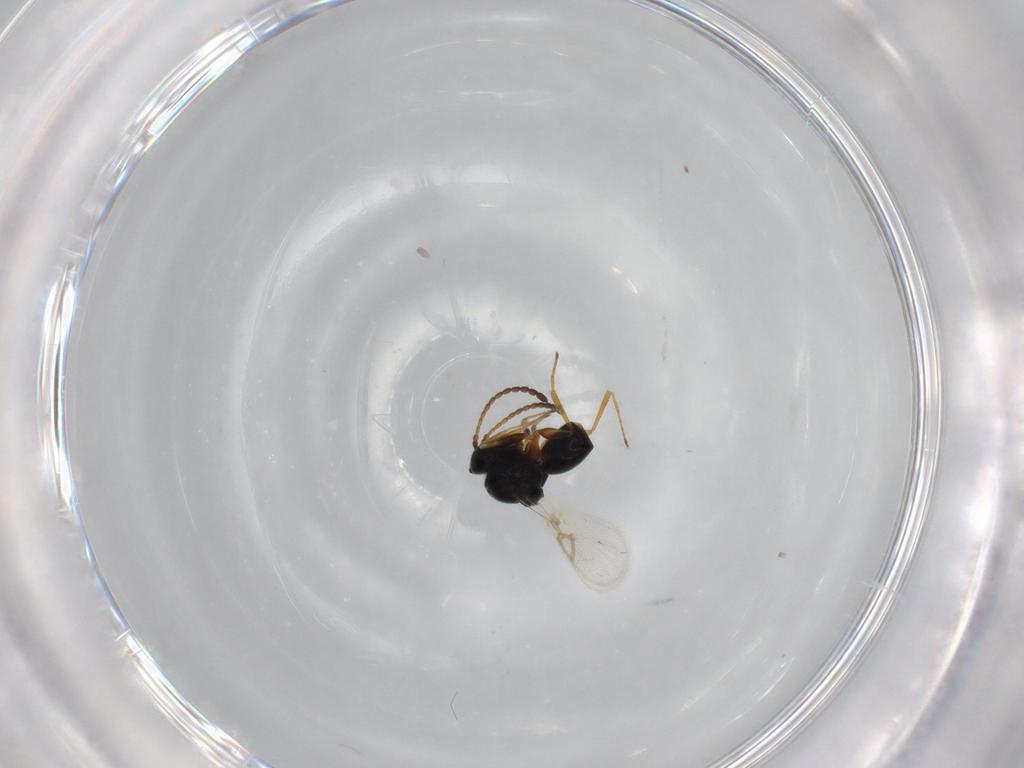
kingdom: Animalia
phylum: Arthropoda
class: Insecta
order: Hymenoptera
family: Figitidae
